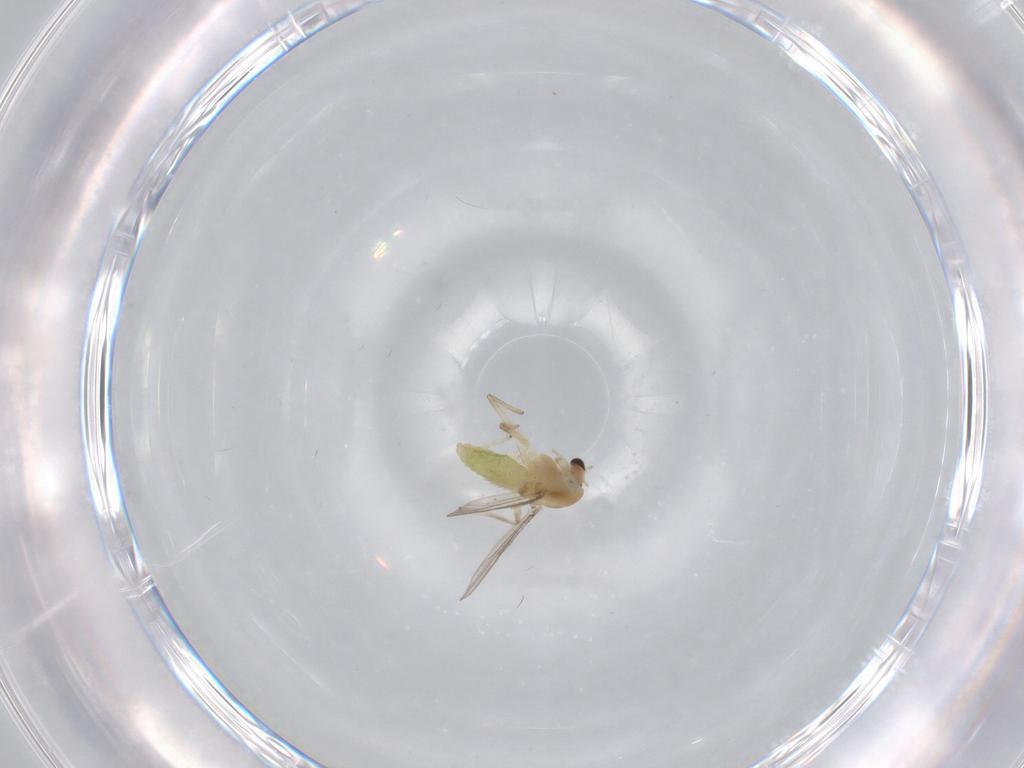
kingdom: Animalia
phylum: Arthropoda
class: Insecta
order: Diptera
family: Chironomidae
